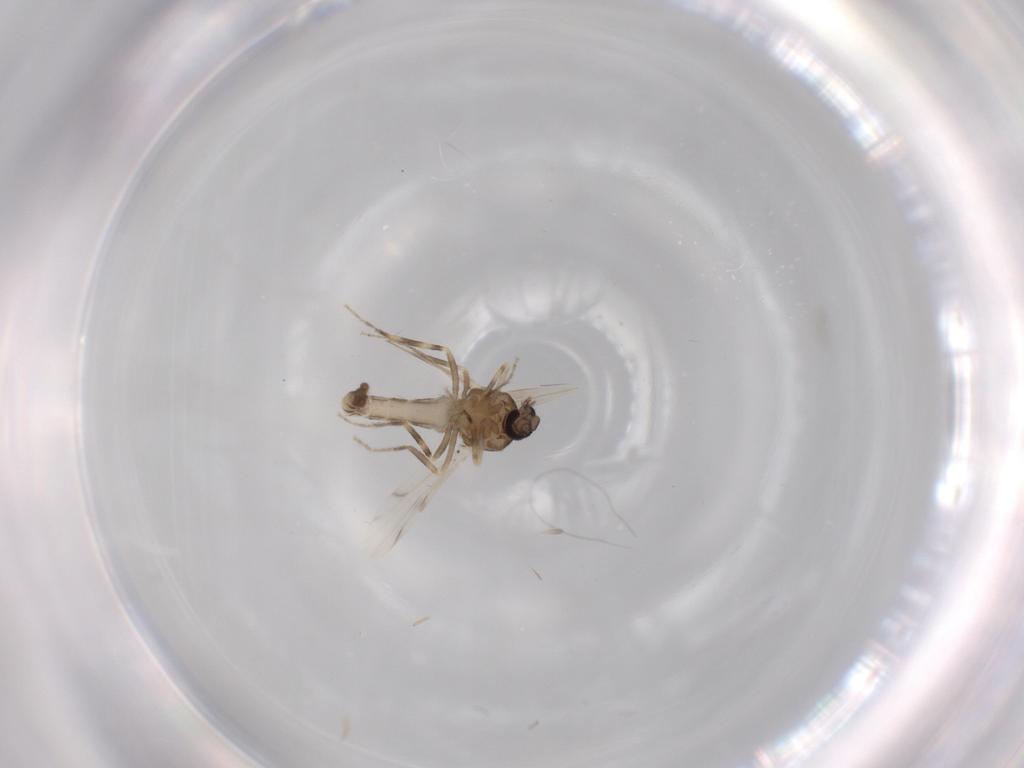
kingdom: Animalia
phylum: Arthropoda
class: Insecta
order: Diptera
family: Ceratopogonidae
